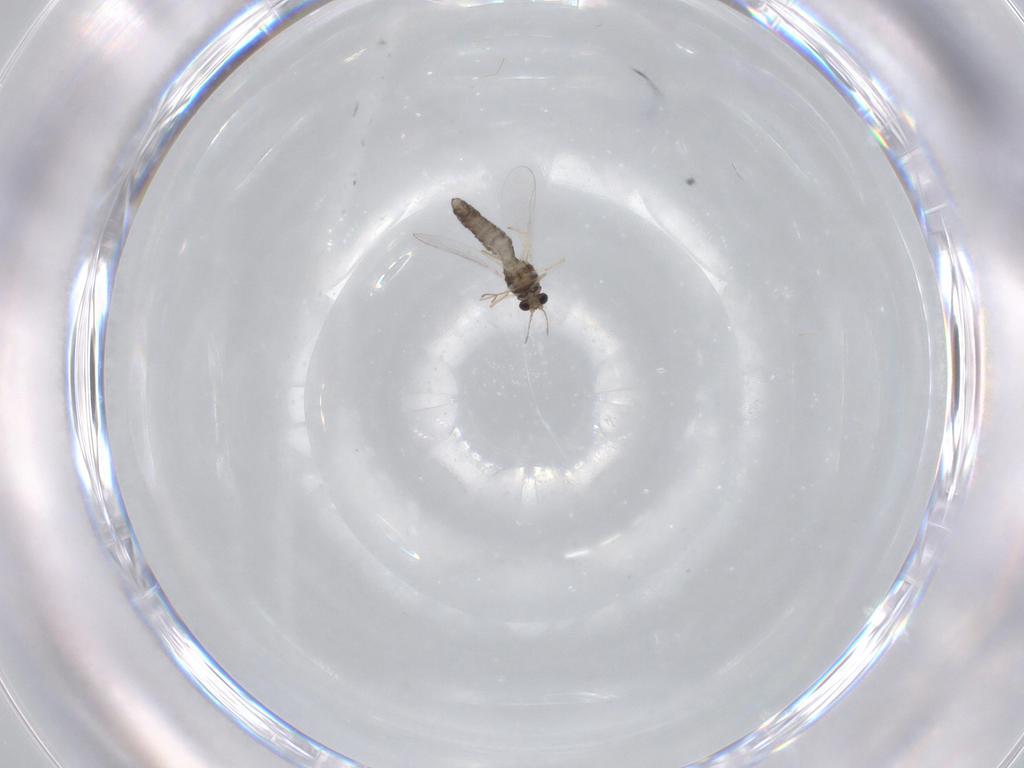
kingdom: Animalia
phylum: Arthropoda
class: Insecta
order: Diptera
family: Chironomidae
